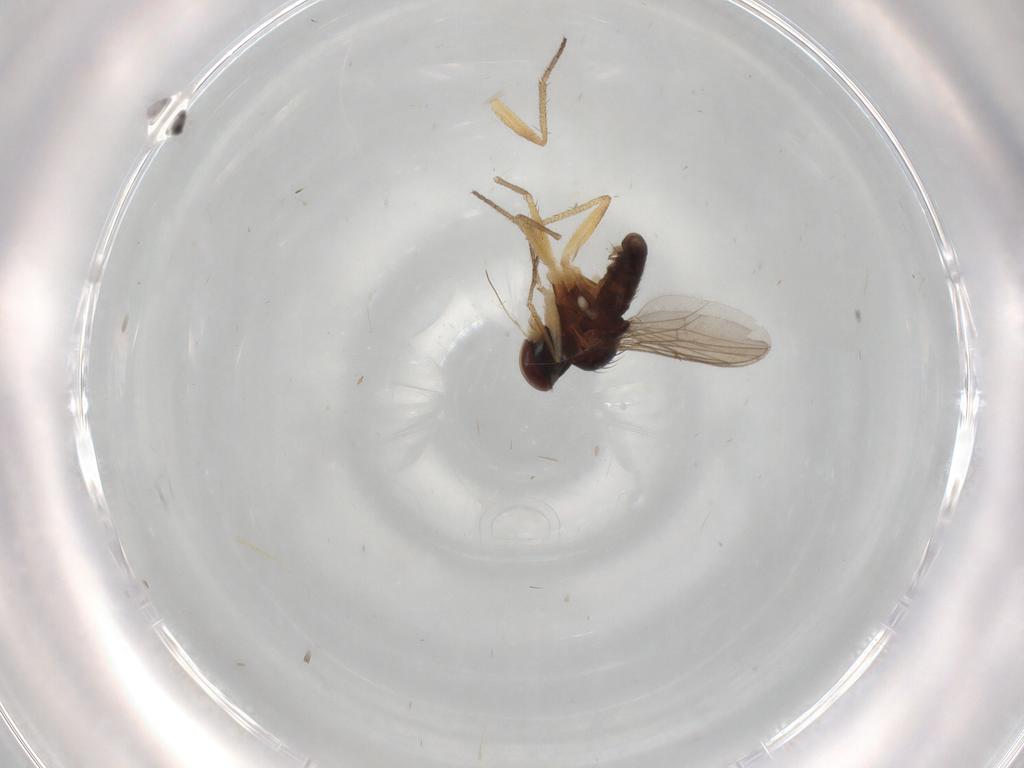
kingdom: Animalia
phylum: Arthropoda
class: Insecta
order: Diptera
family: Dolichopodidae
